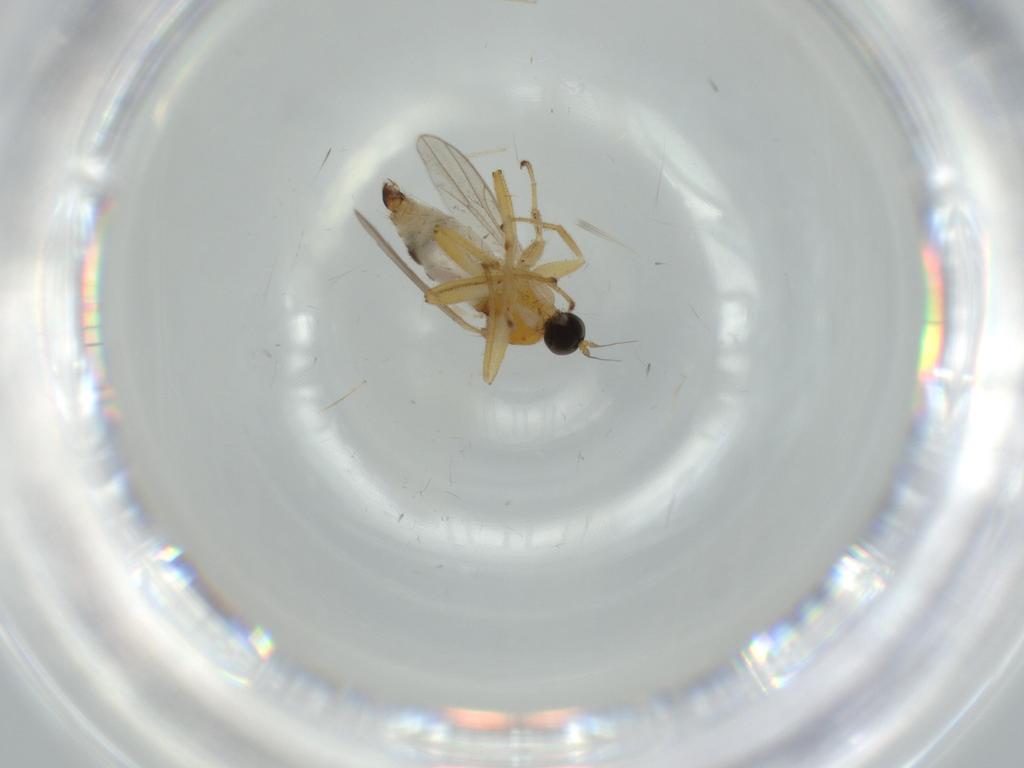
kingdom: Animalia
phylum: Arthropoda
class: Insecta
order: Diptera
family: Hybotidae
